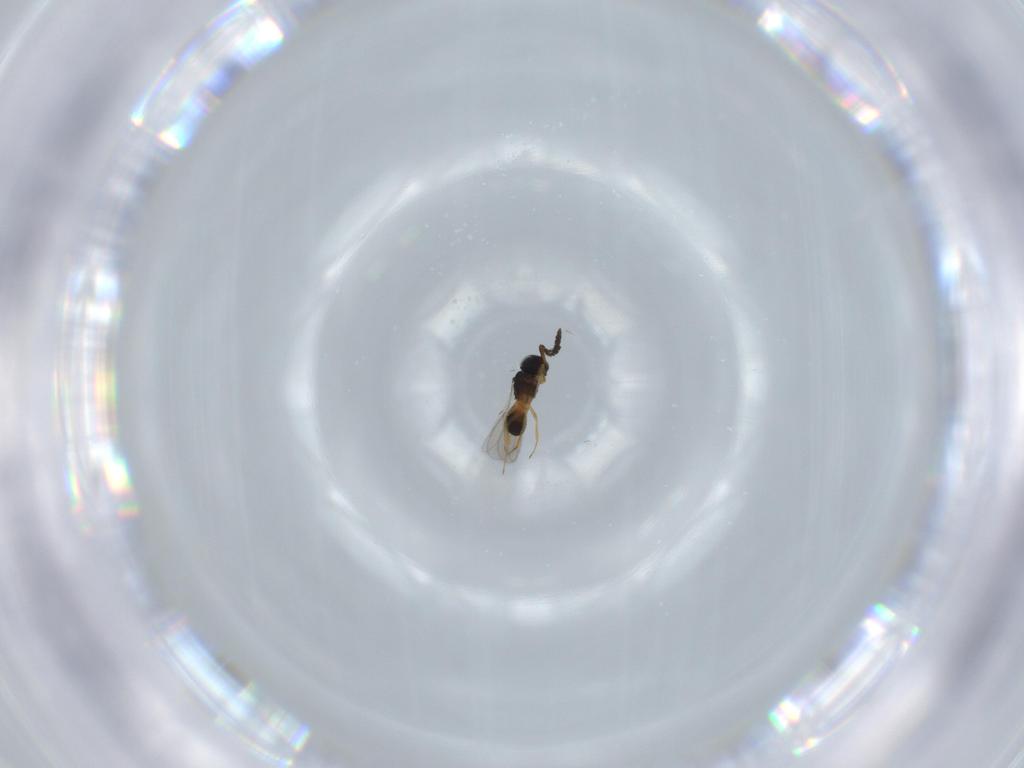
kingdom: Animalia
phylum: Arthropoda
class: Insecta
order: Hymenoptera
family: Scelionidae
